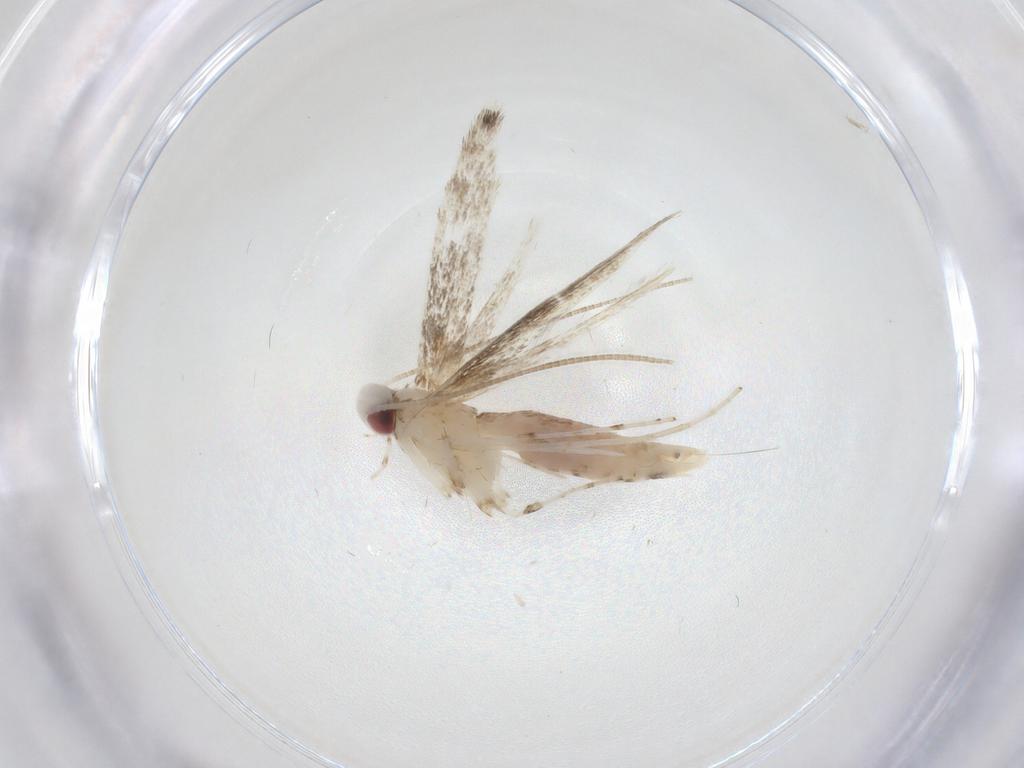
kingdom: Animalia
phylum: Arthropoda
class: Insecta
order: Lepidoptera
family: Gracillariidae
